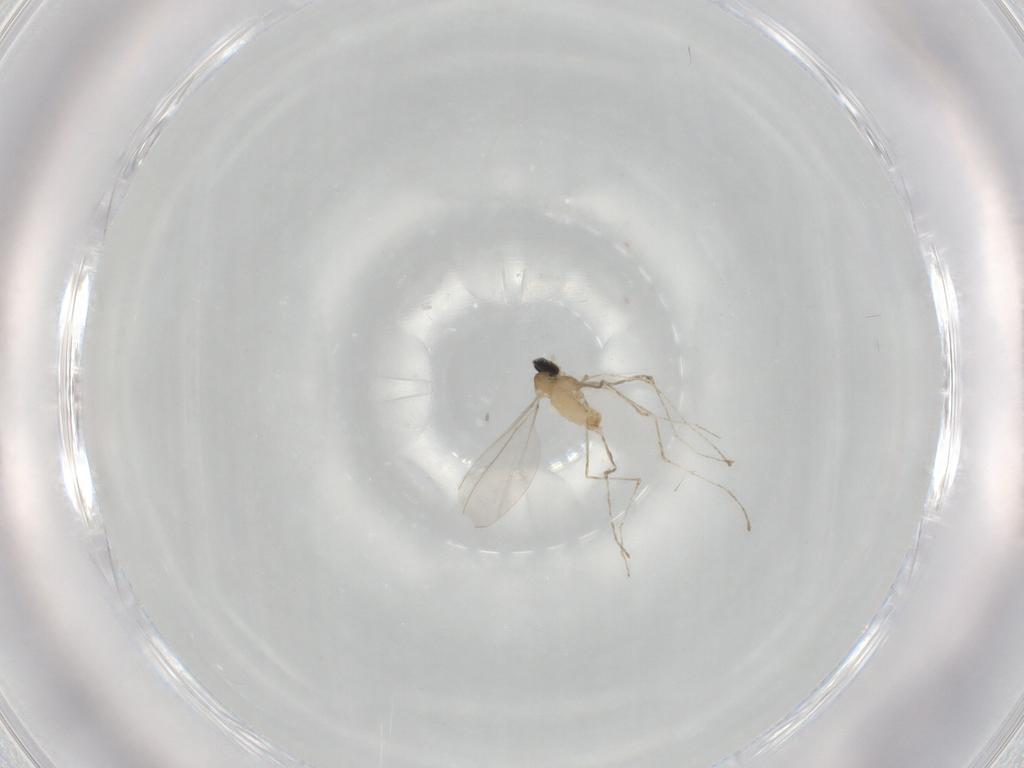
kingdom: Animalia
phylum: Arthropoda
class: Insecta
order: Diptera
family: Cecidomyiidae
